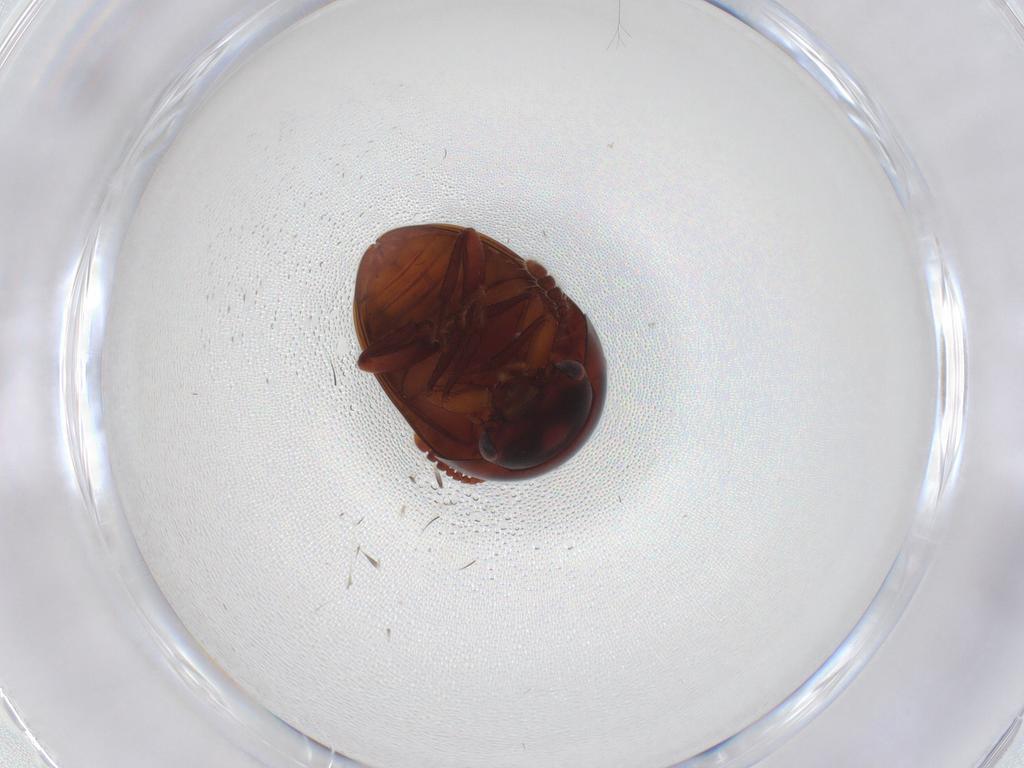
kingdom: Animalia
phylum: Arthropoda
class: Insecta
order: Coleoptera
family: Leiodidae
